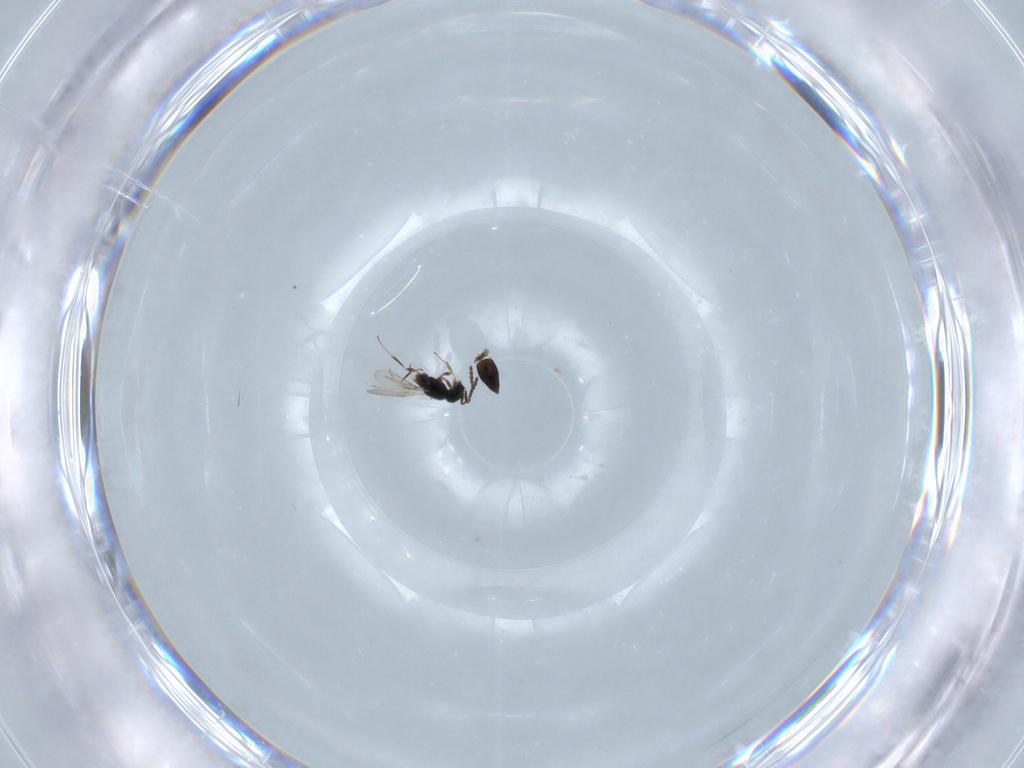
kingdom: Animalia
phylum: Arthropoda
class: Insecta
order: Hymenoptera
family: Scelionidae
